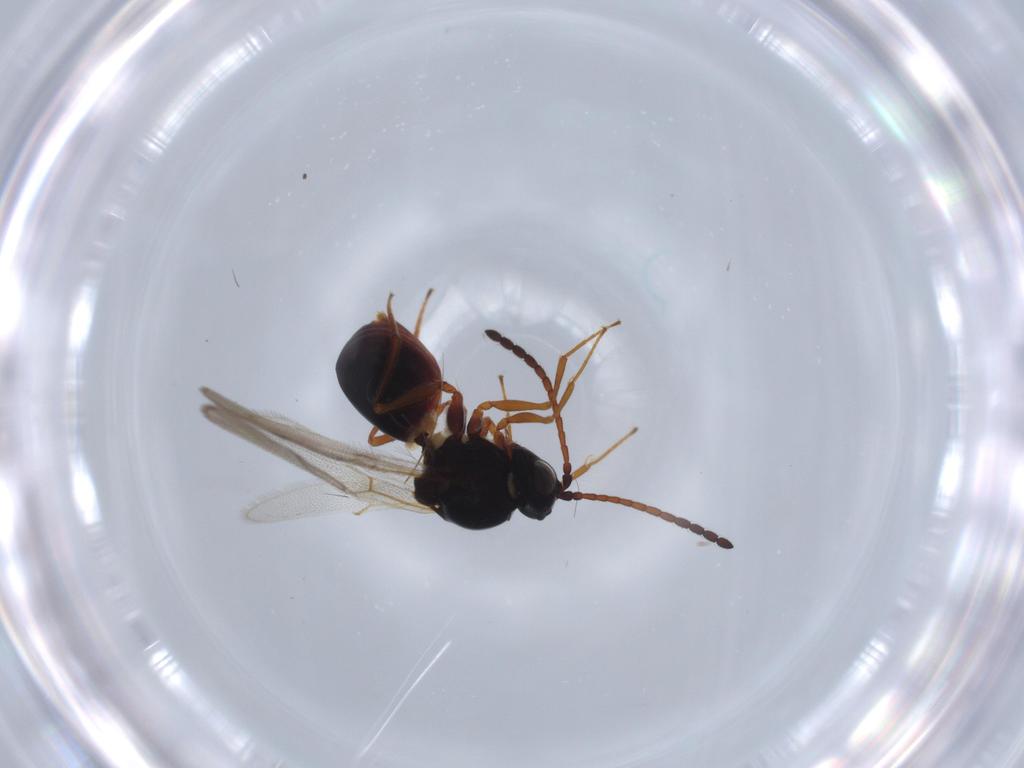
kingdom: Animalia
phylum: Arthropoda
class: Insecta
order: Hymenoptera
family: Figitidae
